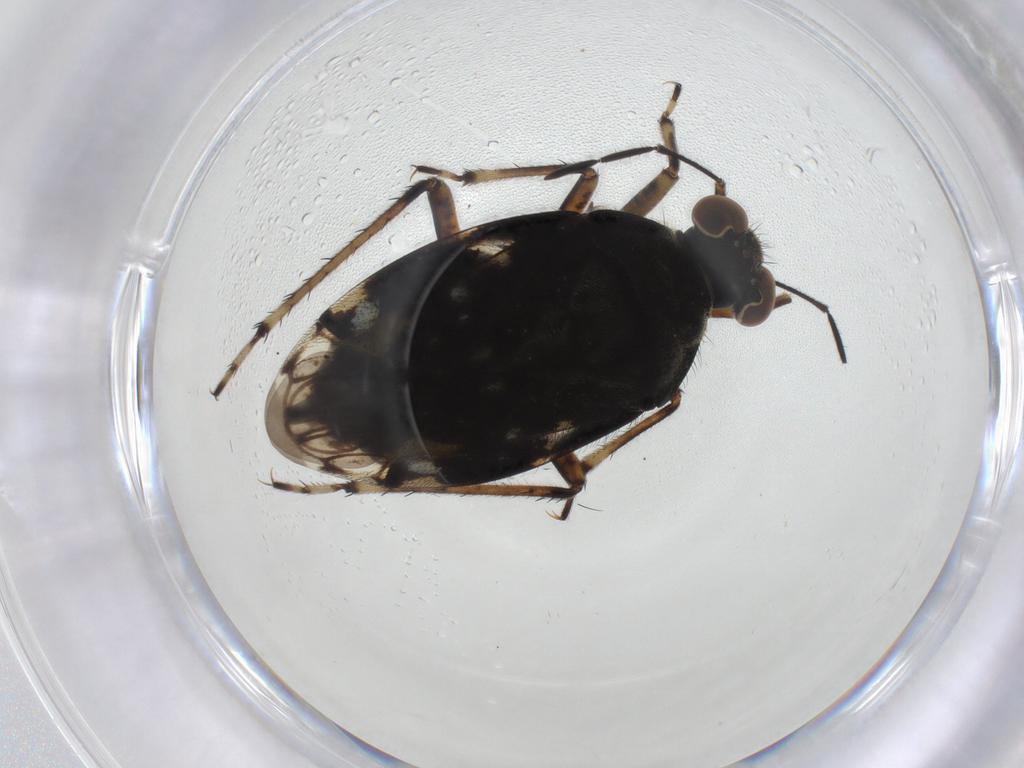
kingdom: Animalia
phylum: Arthropoda
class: Insecta
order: Hemiptera
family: Saldidae
